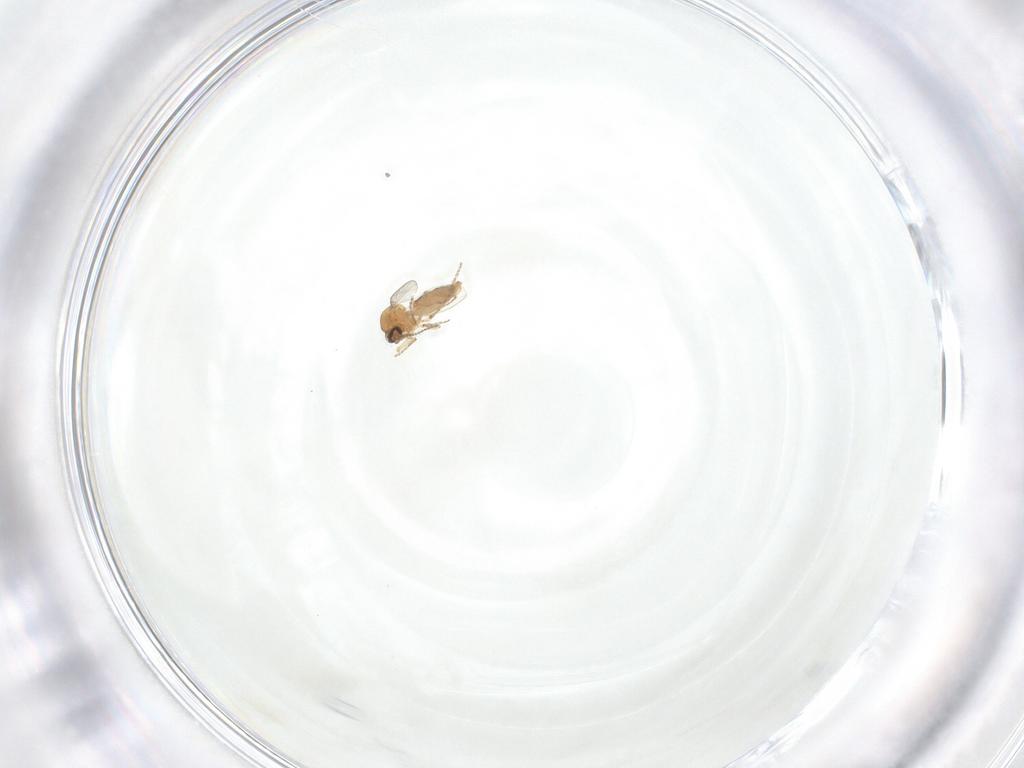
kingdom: Animalia
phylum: Arthropoda
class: Insecta
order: Diptera
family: Ceratopogonidae
